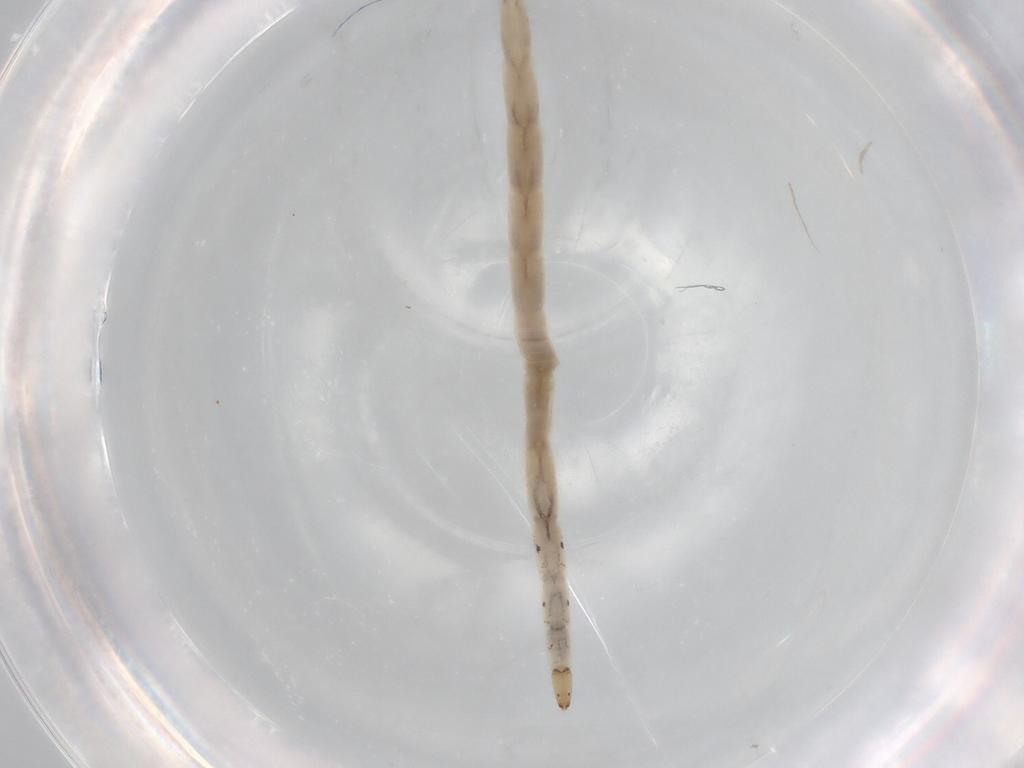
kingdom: Animalia
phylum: Arthropoda
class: Insecta
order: Diptera
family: Ceratopogonidae
